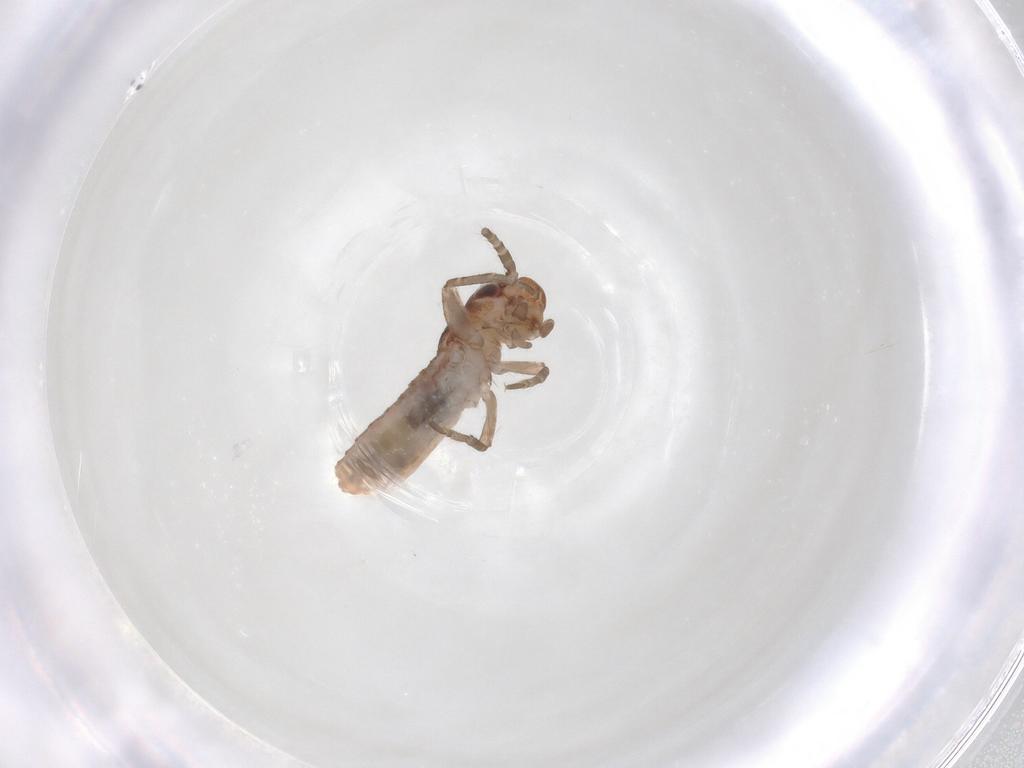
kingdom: Animalia
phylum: Arthropoda
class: Insecta
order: Orthoptera
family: Mogoplistidae
